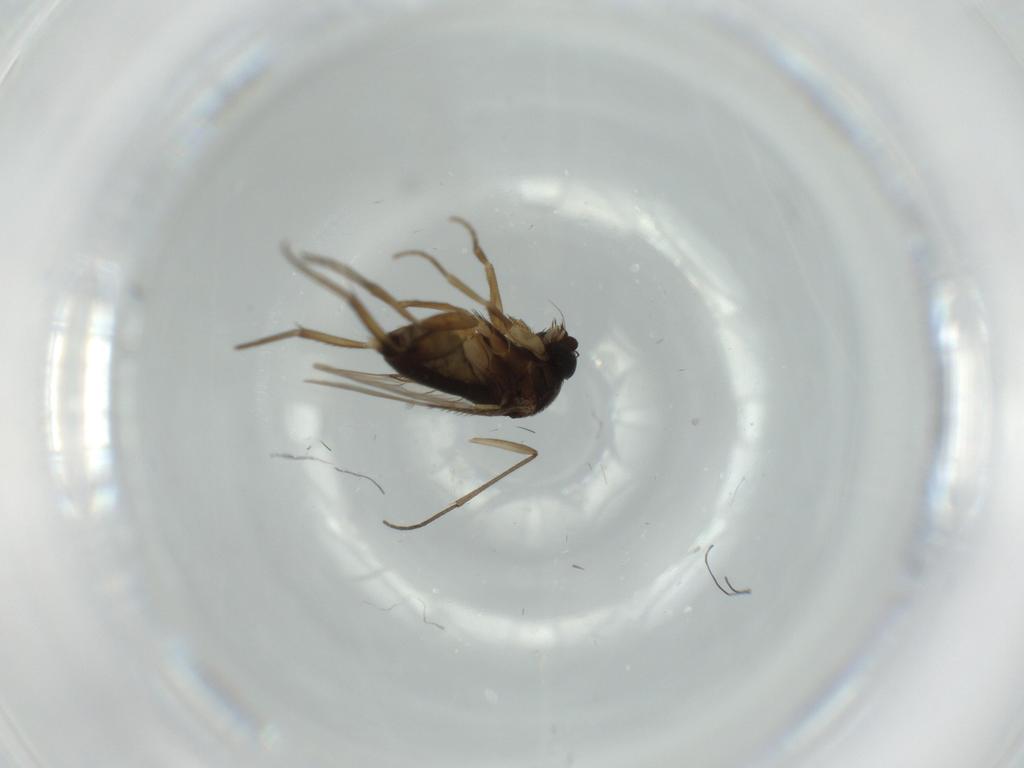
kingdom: Animalia
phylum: Arthropoda
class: Insecta
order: Diptera
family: Phoridae
